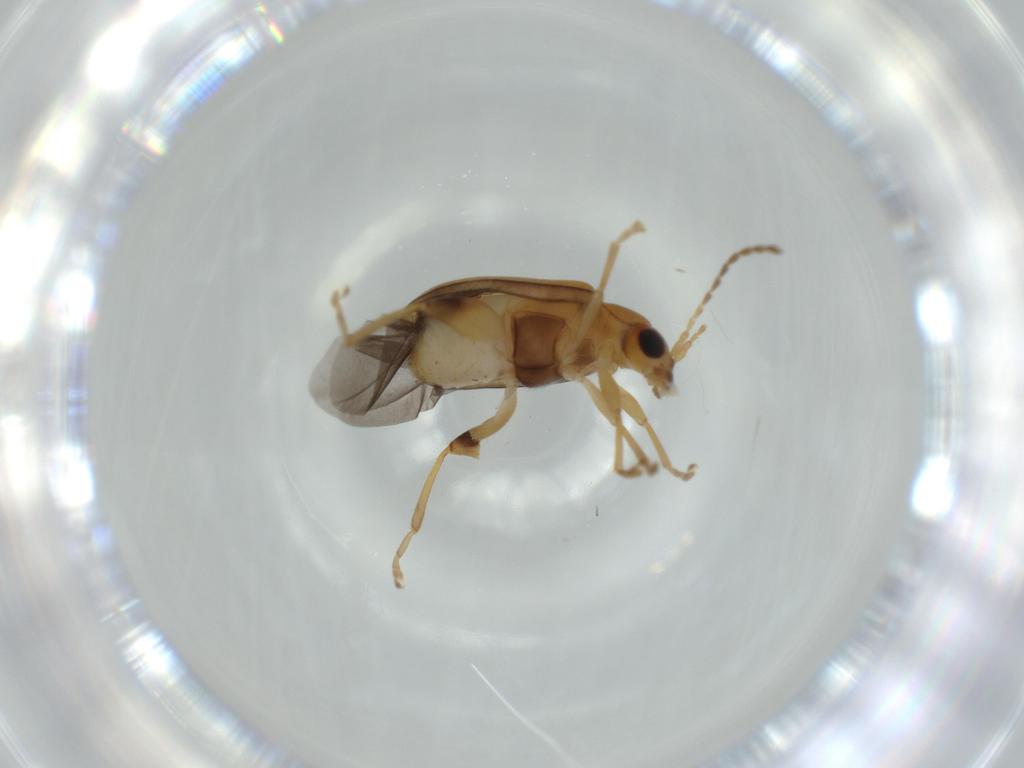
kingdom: Animalia
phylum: Arthropoda
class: Insecta
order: Coleoptera
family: Chrysomelidae
